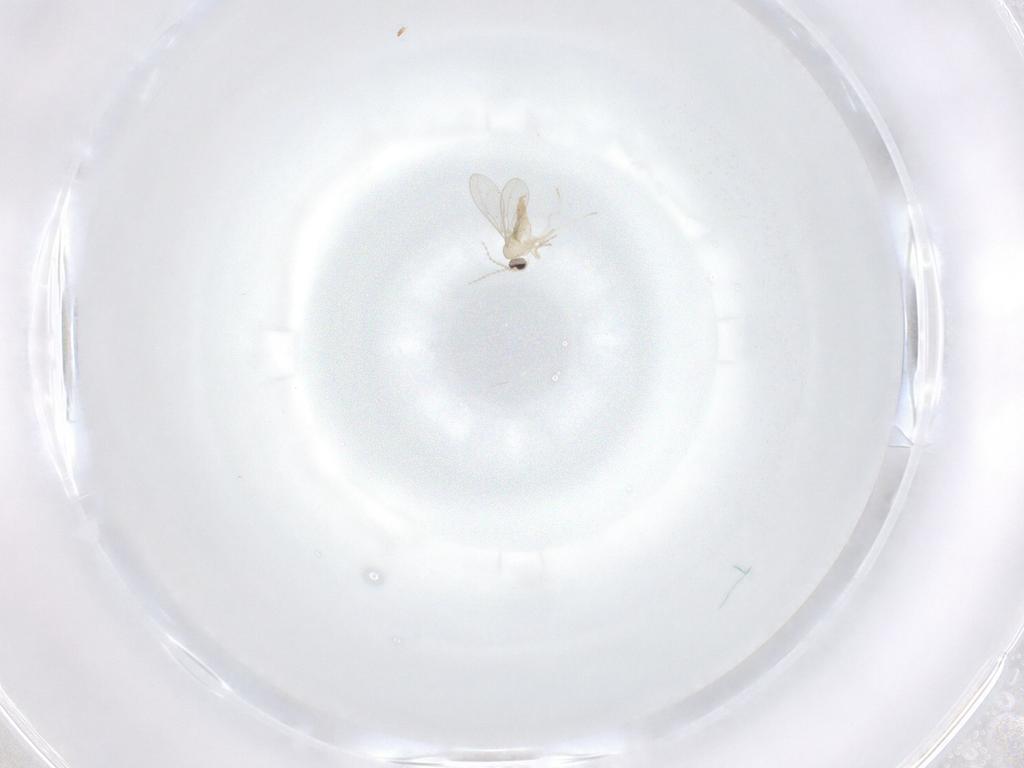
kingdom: Animalia
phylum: Arthropoda
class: Insecta
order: Diptera
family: Cecidomyiidae
